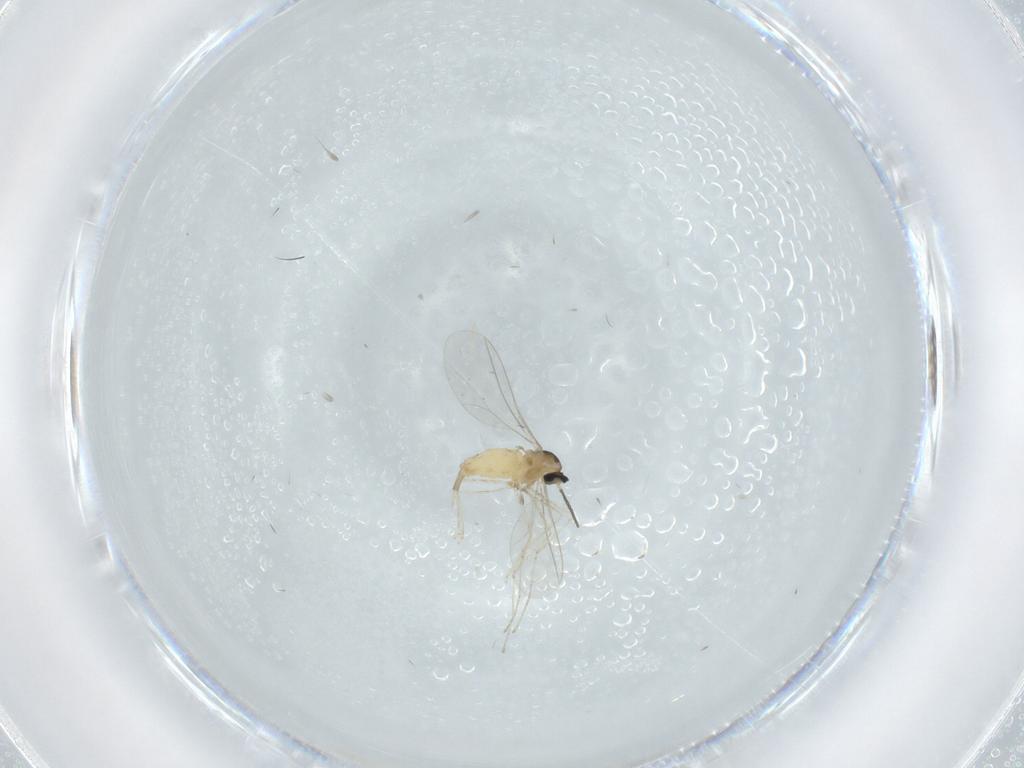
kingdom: Animalia
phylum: Arthropoda
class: Insecta
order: Diptera
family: Cecidomyiidae
